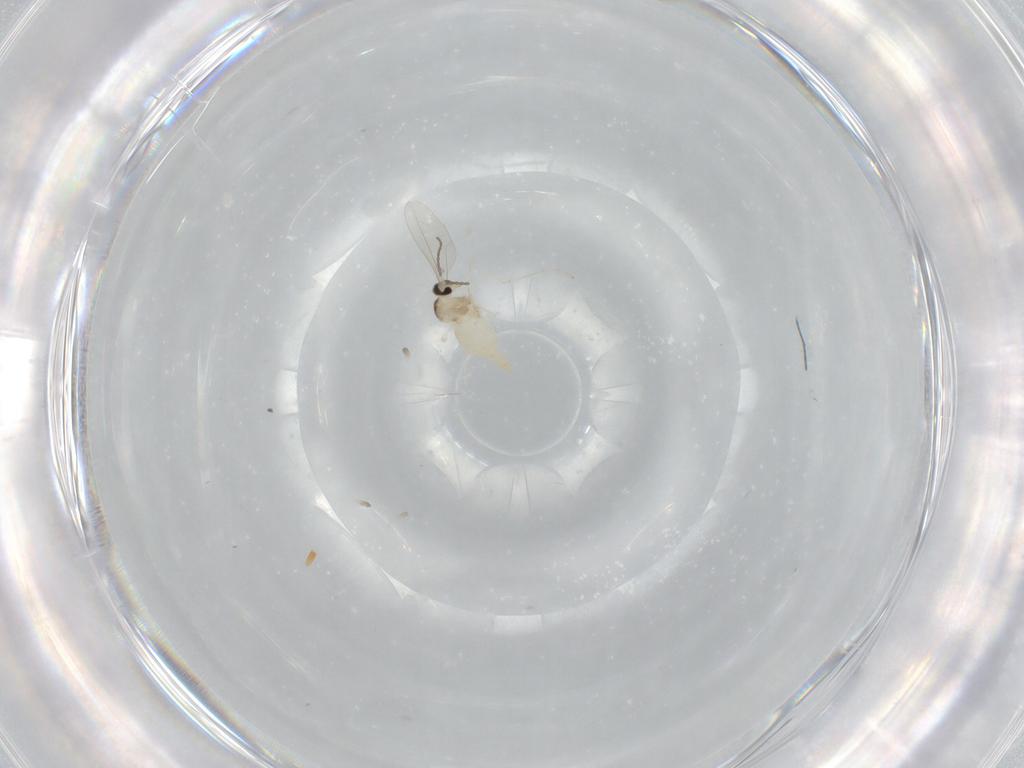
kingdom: Animalia
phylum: Arthropoda
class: Insecta
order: Diptera
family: Cecidomyiidae
